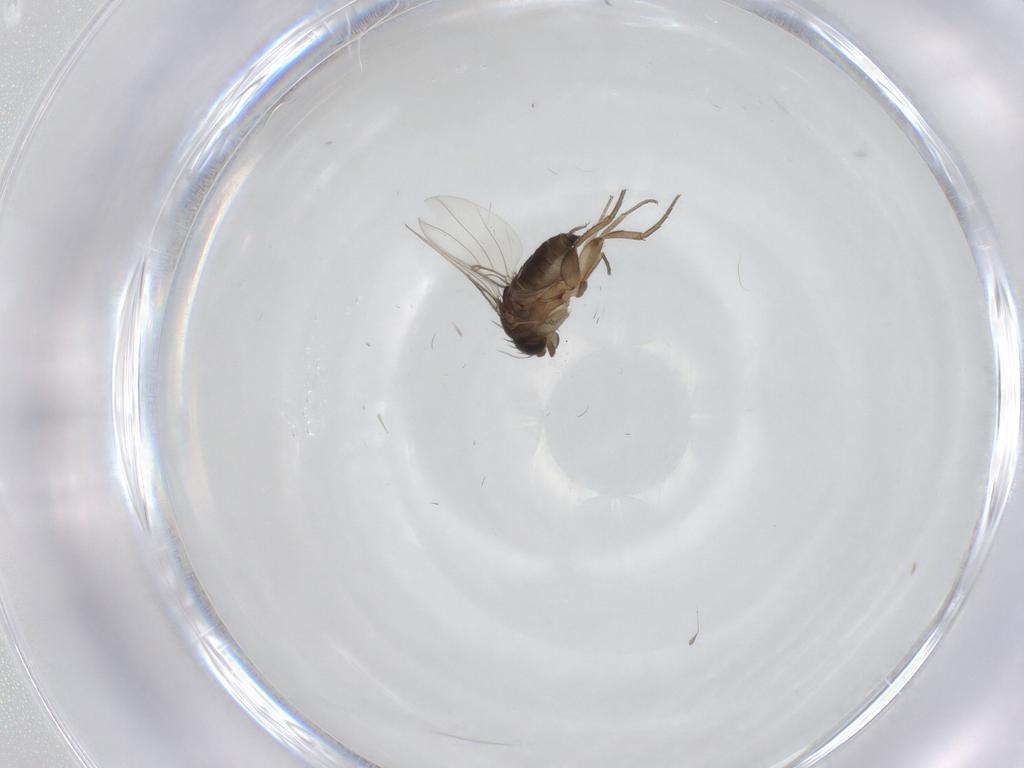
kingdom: Animalia
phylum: Arthropoda
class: Insecta
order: Diptera
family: Phoridae
